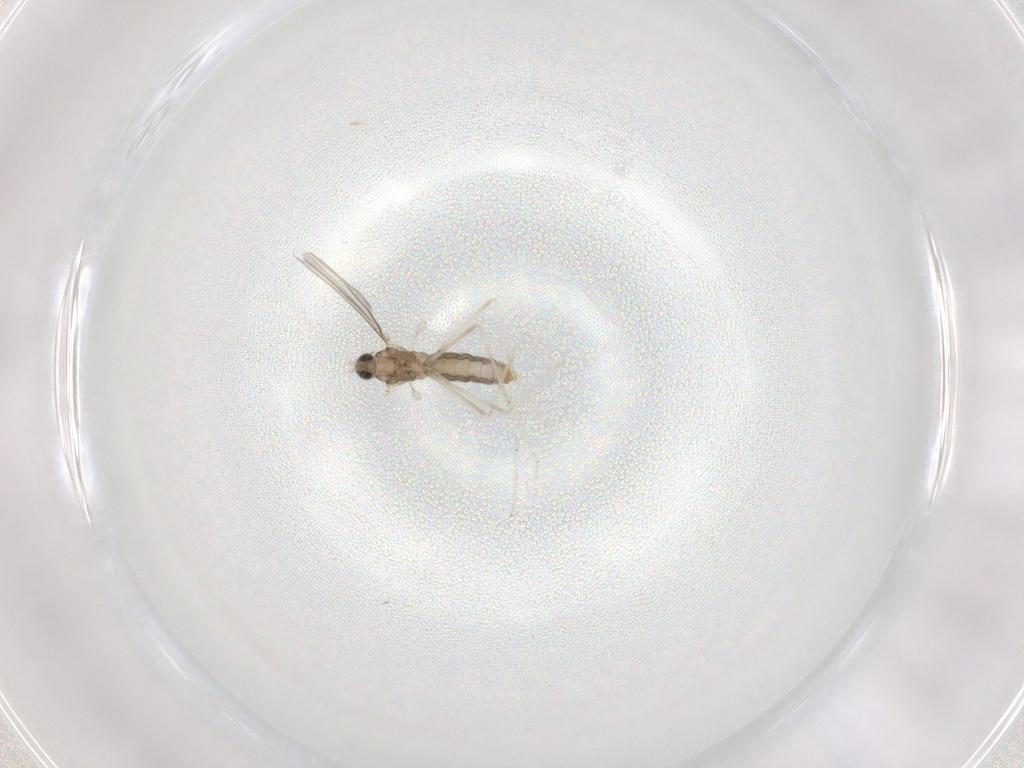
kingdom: Animalia
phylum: Arthropoda
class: Insecta
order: Diptera
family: Cecidomyiidae
